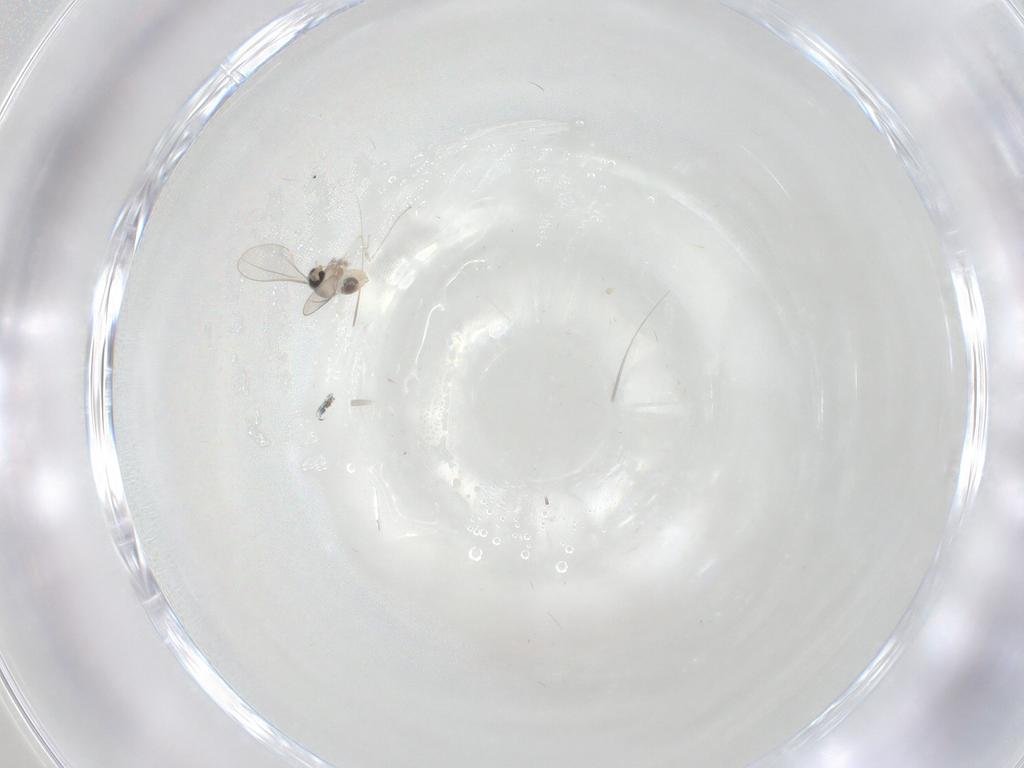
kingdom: Animalia
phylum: Arthropoda
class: Insecta
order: Diptera
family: Cecidomyiidae
